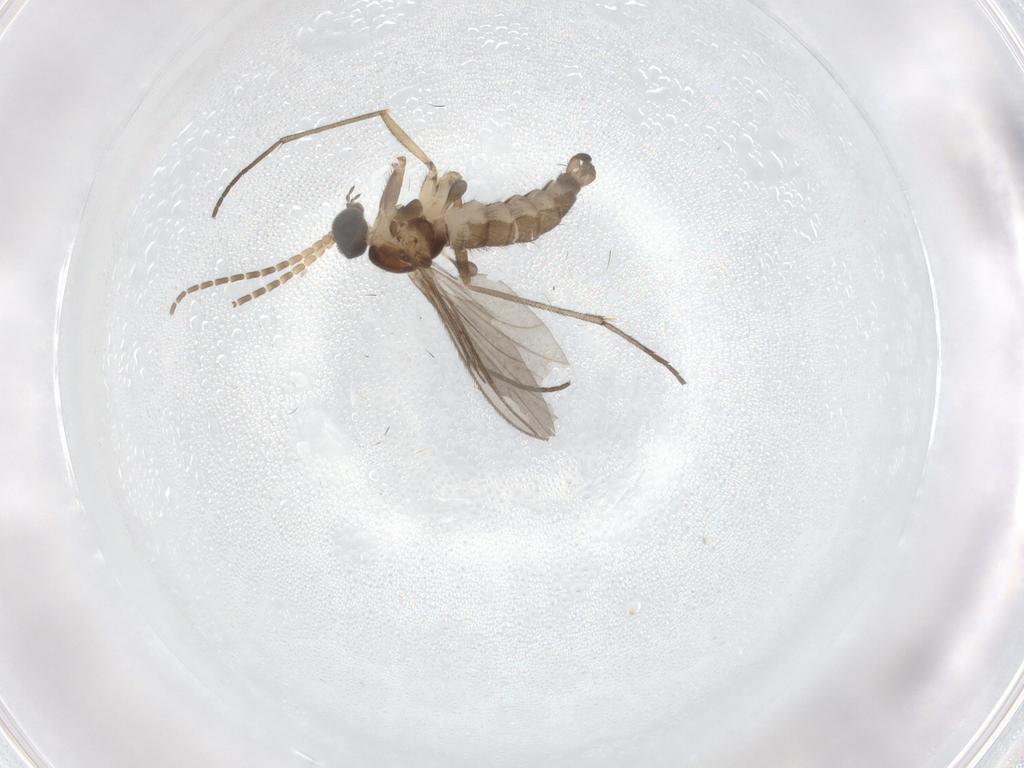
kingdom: Animalia
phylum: Arthropoda
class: Insecta
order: Diptera
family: Sciaridae
